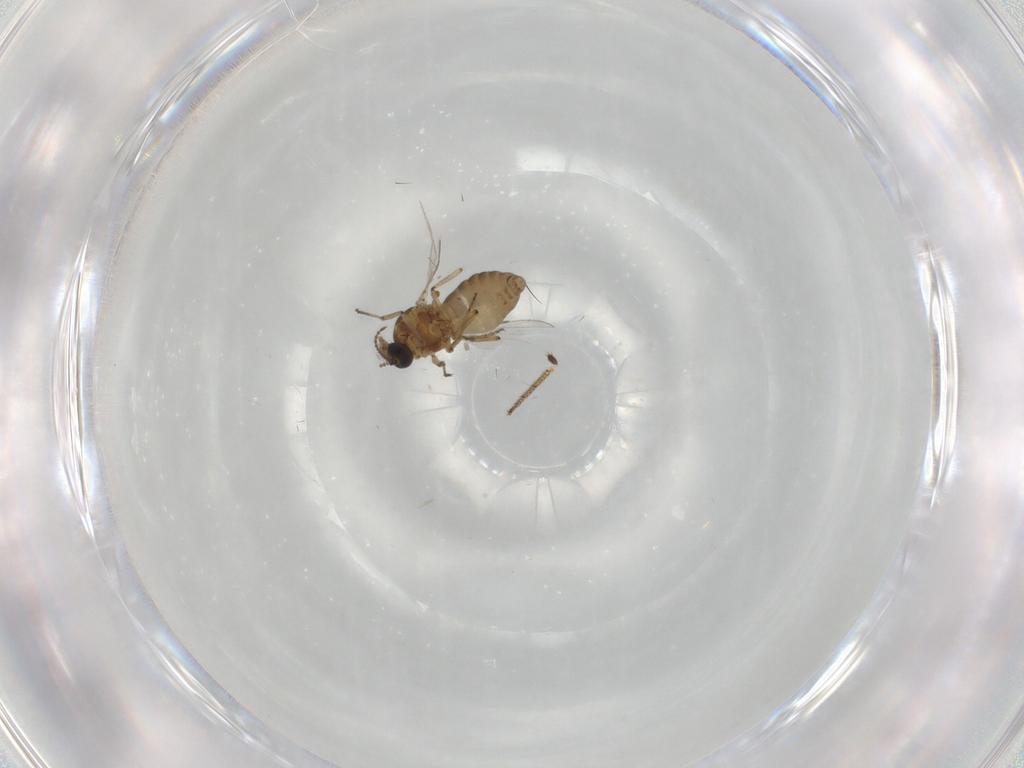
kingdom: Animalia
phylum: Arthropoda
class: Insecta
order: Diptera
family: Ceratopogonidae
